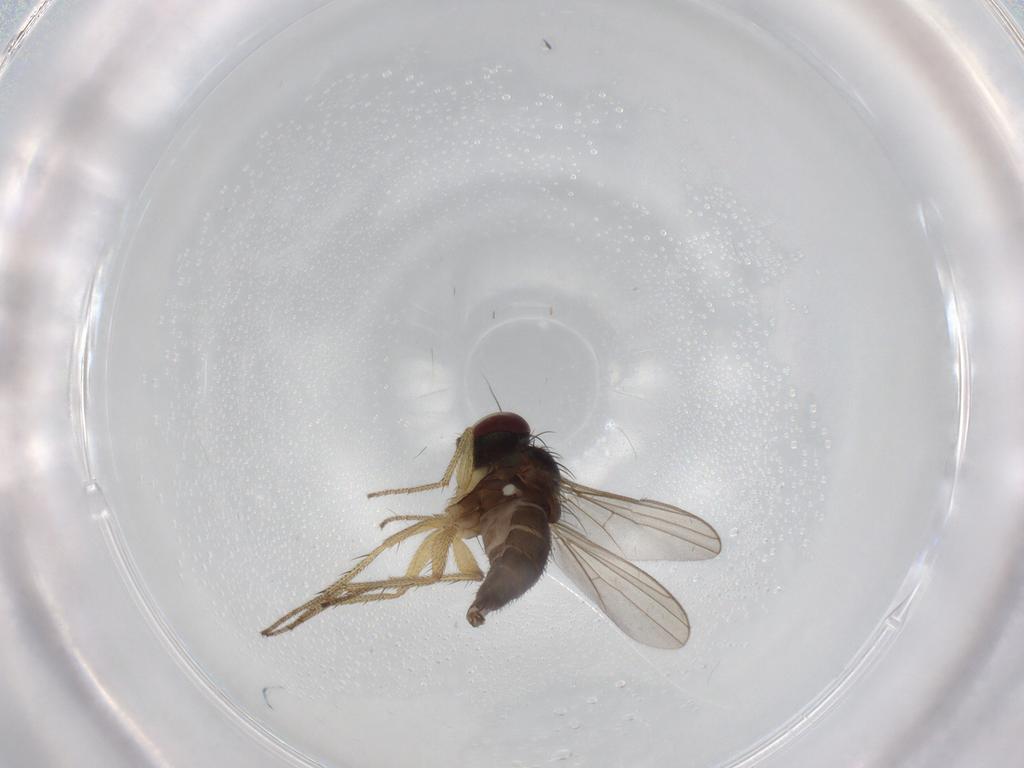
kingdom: Animalia
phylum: Arthropoda
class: Insecta
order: Diptera
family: Dolichopodidae
